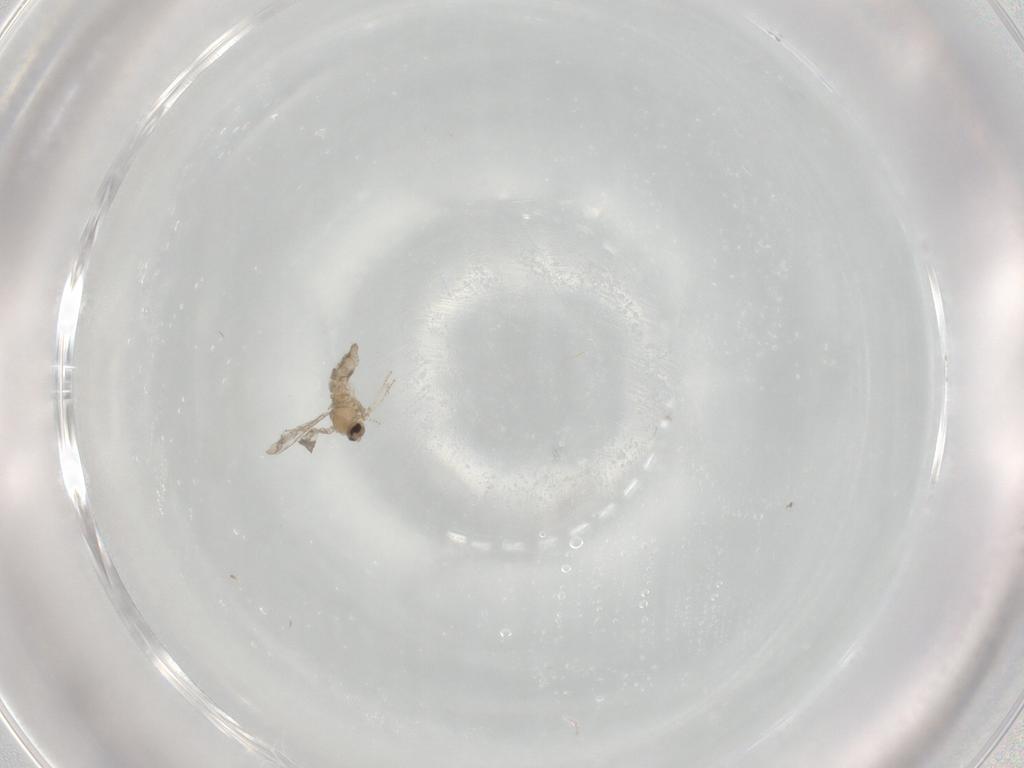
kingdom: Animalia
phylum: Arthropoda
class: Insecta
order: Diptera
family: Cecidomyiidae
